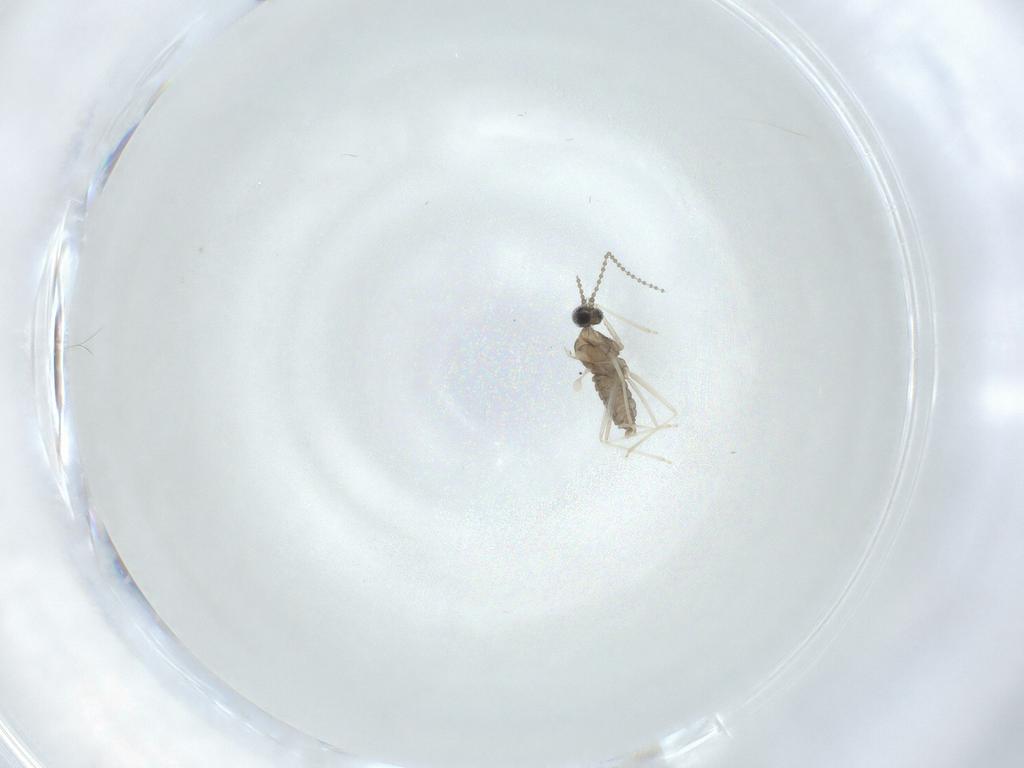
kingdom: Animalia
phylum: Arthropoda
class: Insecta
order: Diptera
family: Cecidomyiidae
